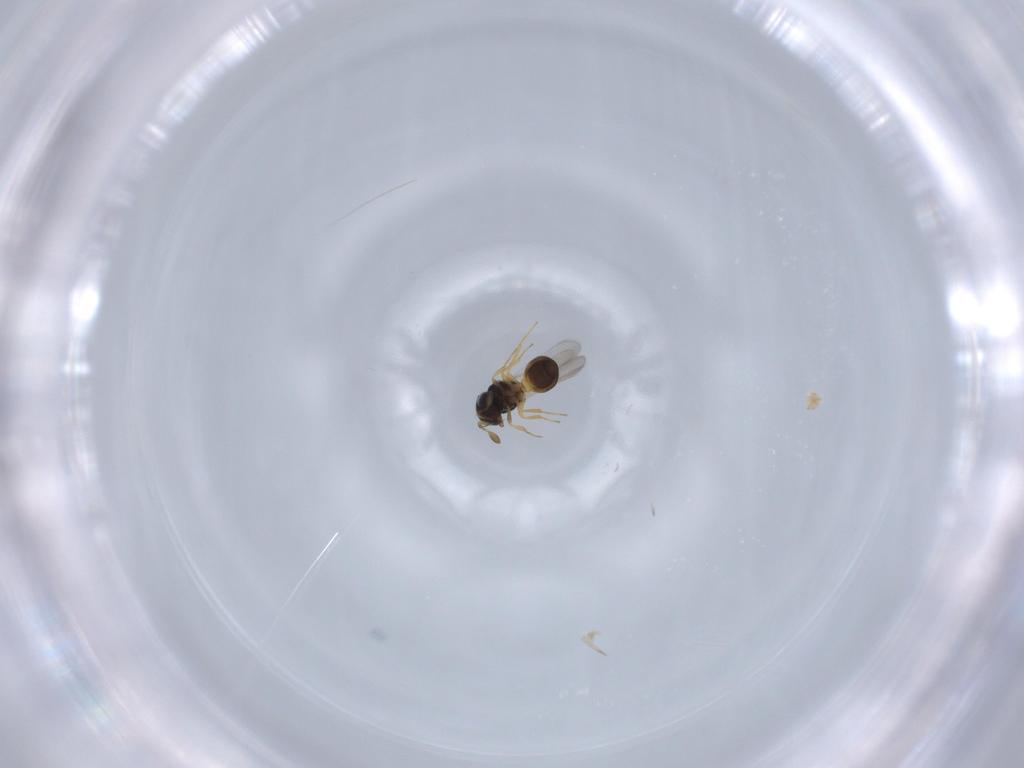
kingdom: Animalia
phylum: Arthropoda
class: Insecta
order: Hymenoptera
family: Scelionidae
